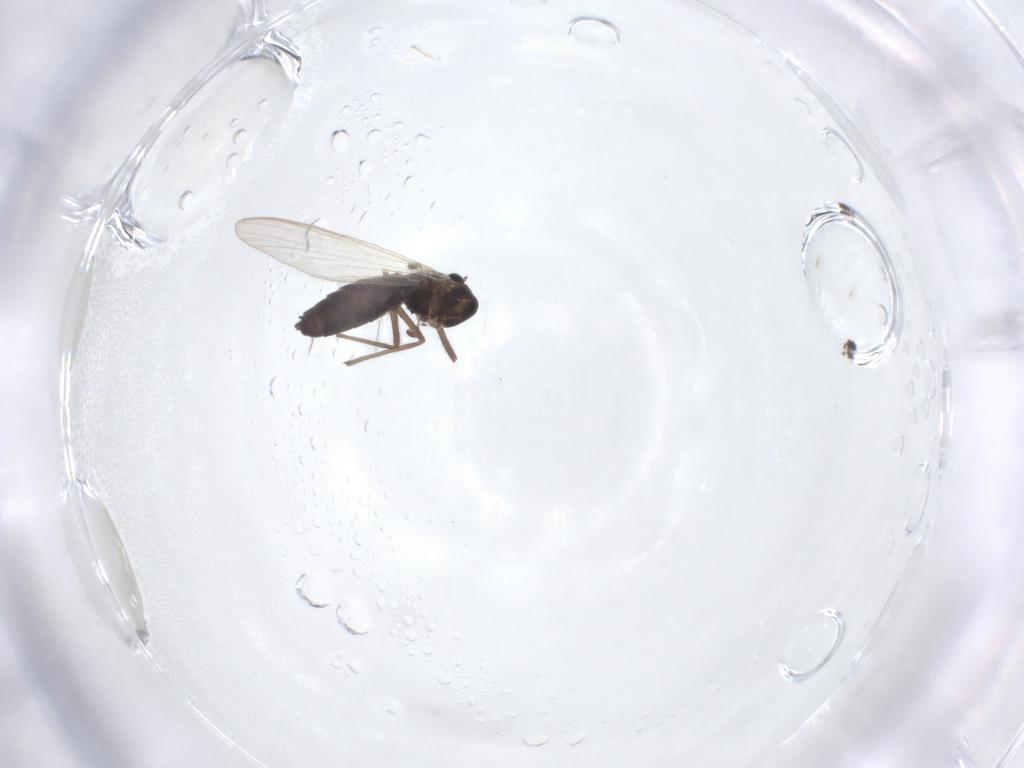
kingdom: Animalia
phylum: Arthropoda
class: Insecta
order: Diptera
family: Chironomidae
